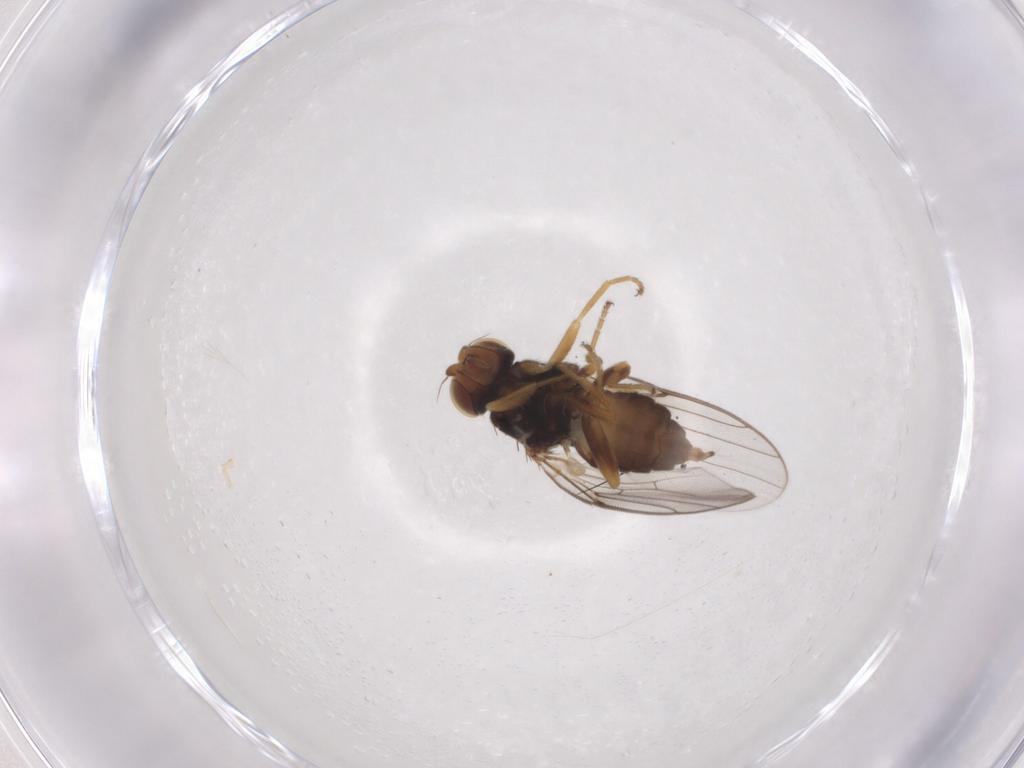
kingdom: Animalia
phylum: Arthropoda
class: Insecta
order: Diptera
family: Chloropidae
